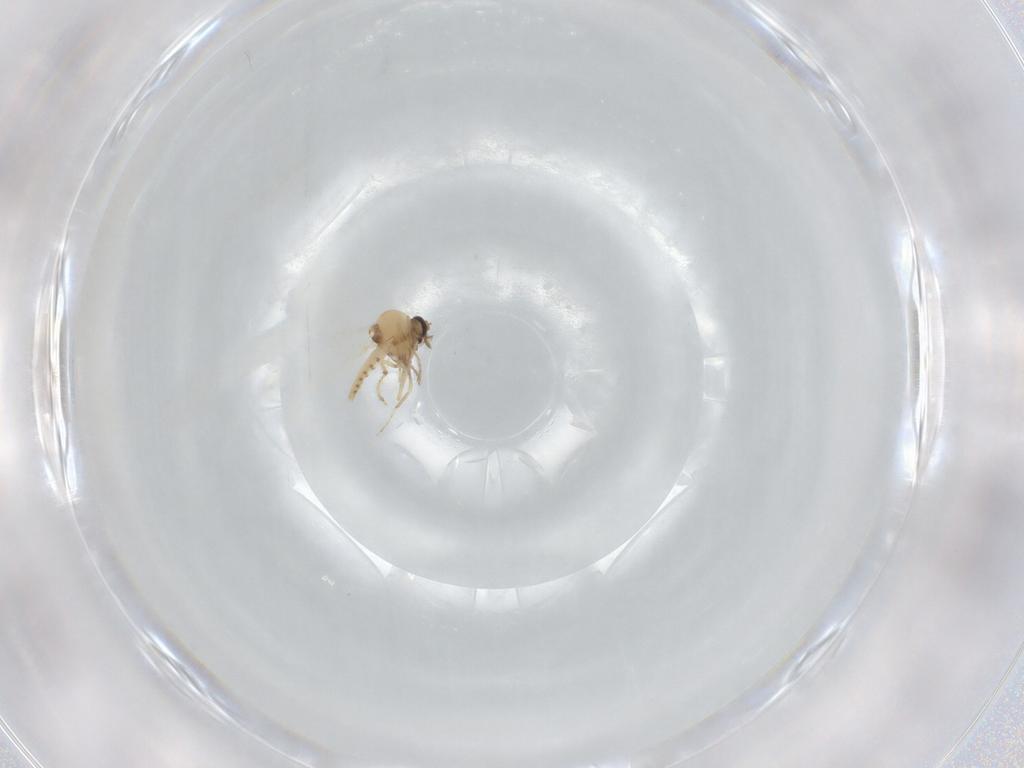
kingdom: Animalia
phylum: Arthropoda
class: Insecta
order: Diptera
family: Ceratopogonidae
